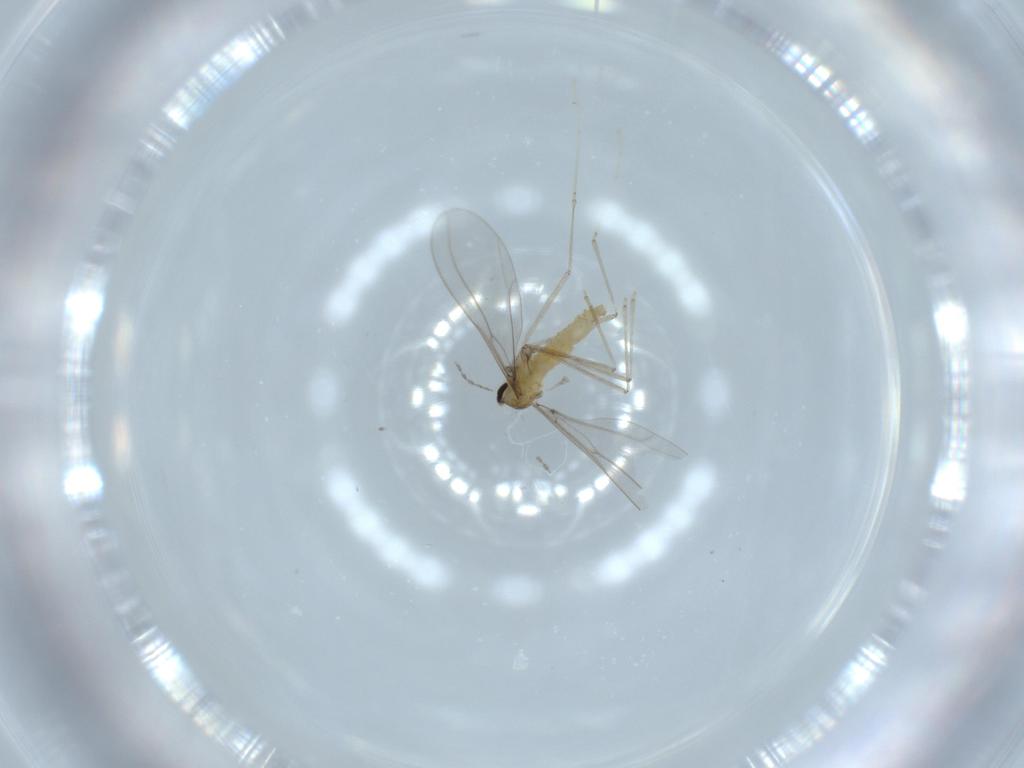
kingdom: Animalia
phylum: Arthropoda
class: Insecta
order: Diptera
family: Cecidomyiidae
